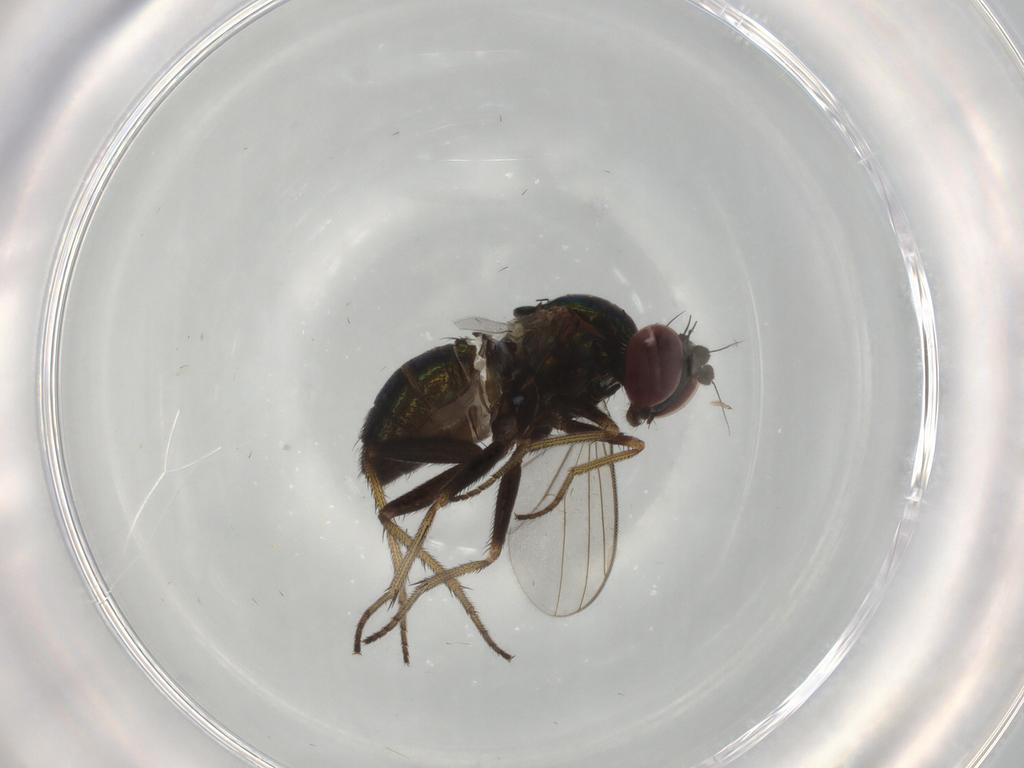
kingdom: Animalia
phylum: Arthropoda
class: Insecta
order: Diptera
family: Dolichopodidae
